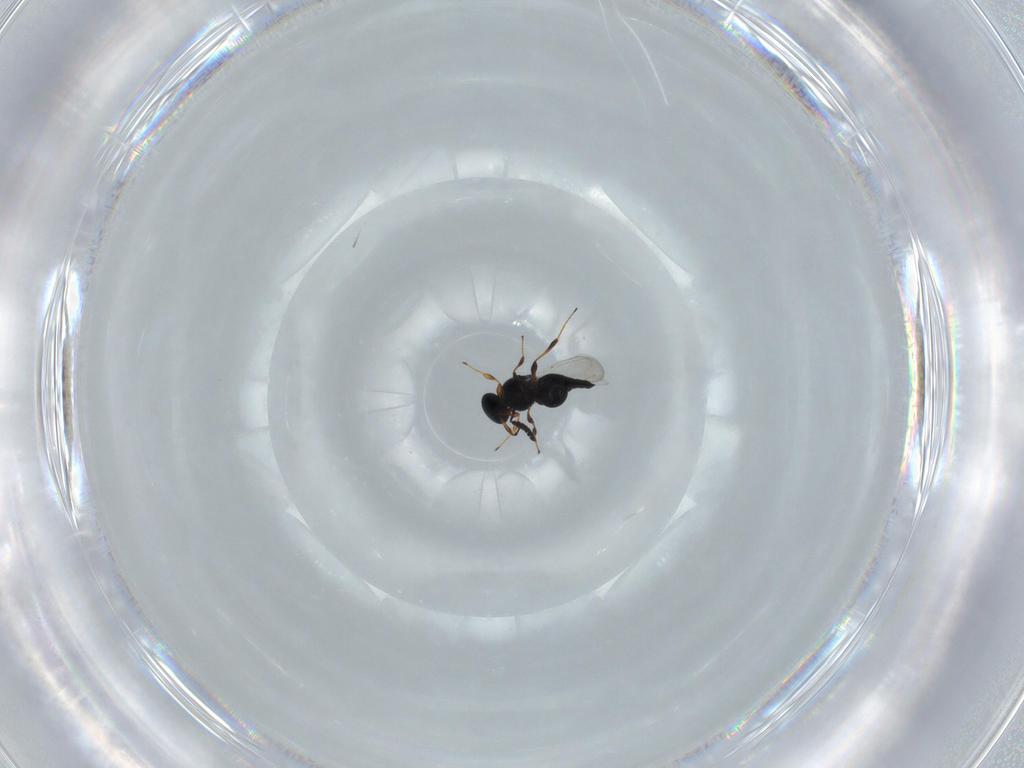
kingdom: Animalia
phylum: Arthropoda
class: Insecta
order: Hymenoptera
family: Platygastridae
